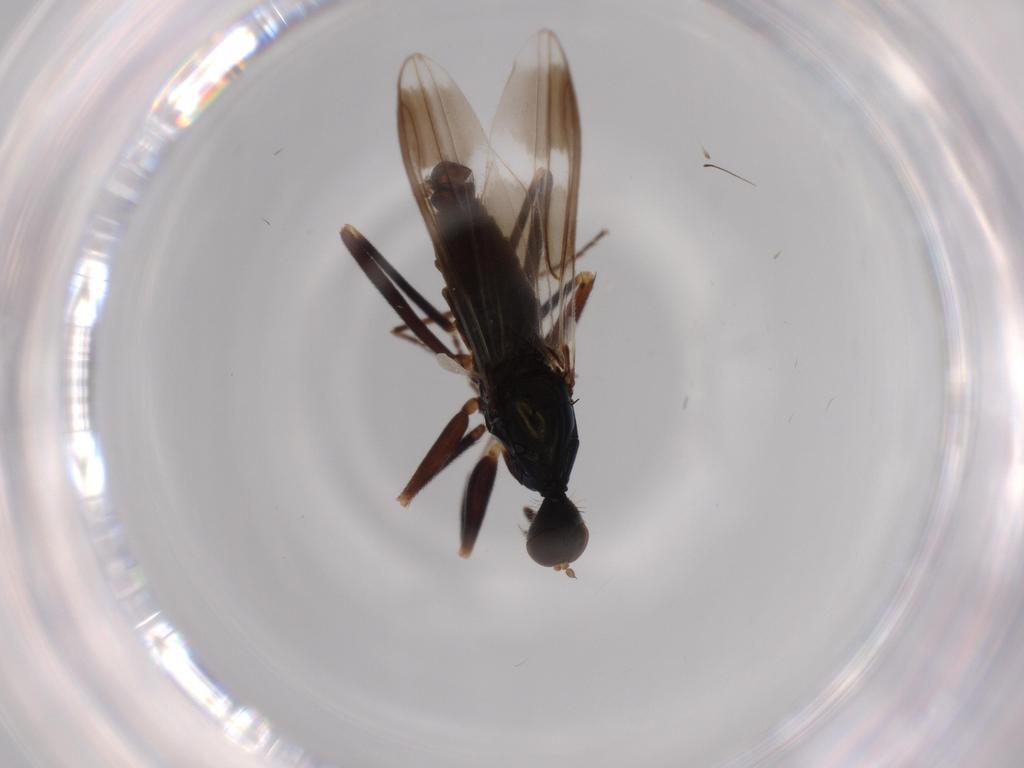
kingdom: Animalia
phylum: Arthropoda
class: Insecta
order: Diptera
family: Hybotidae
